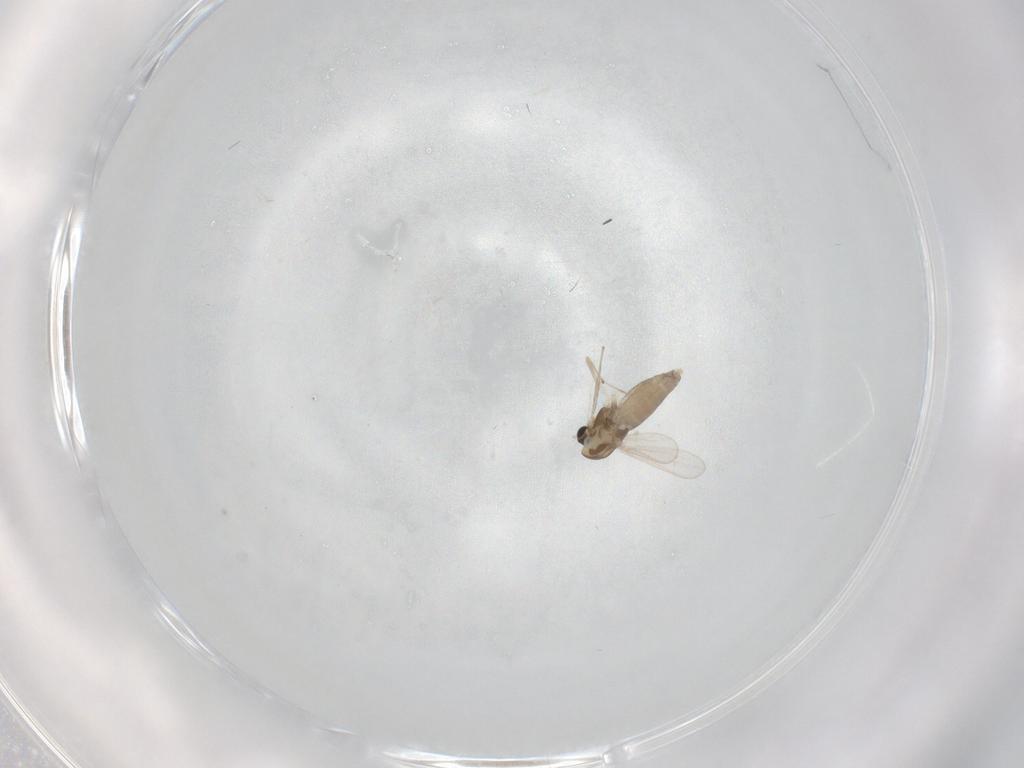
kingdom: Animalia
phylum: Arthropoda
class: Insecta
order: Diptera
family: Chironomidae
